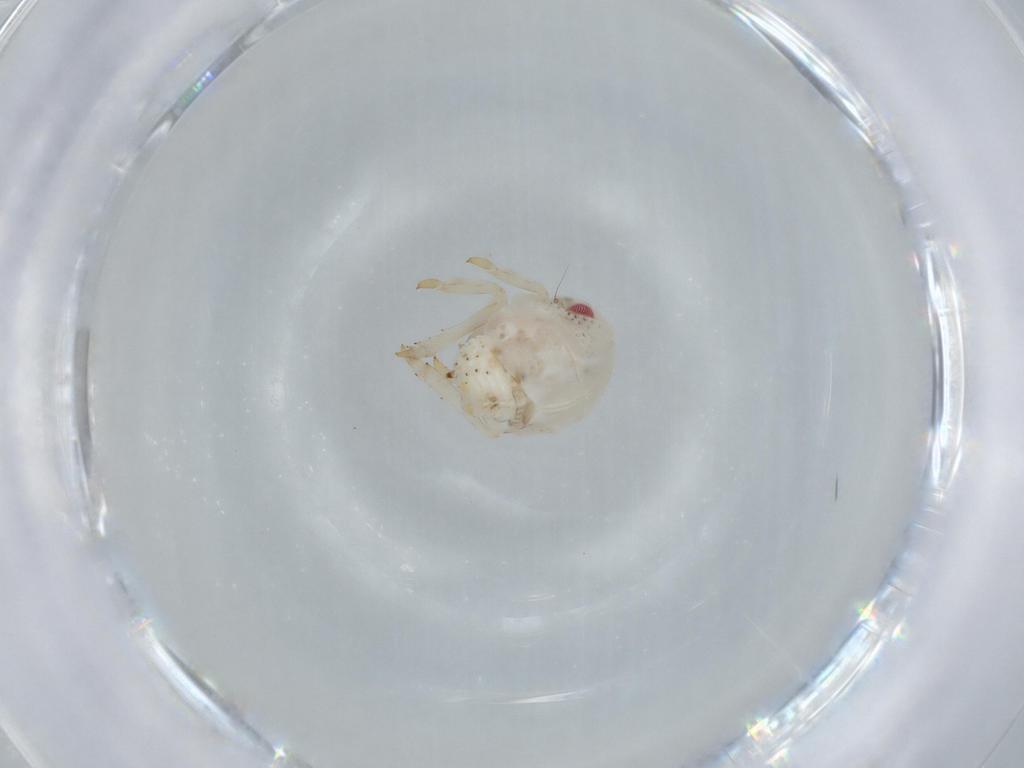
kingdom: Animalia
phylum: Arthropoda
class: Insecta
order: Hemiptera
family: Acanaloniidae
